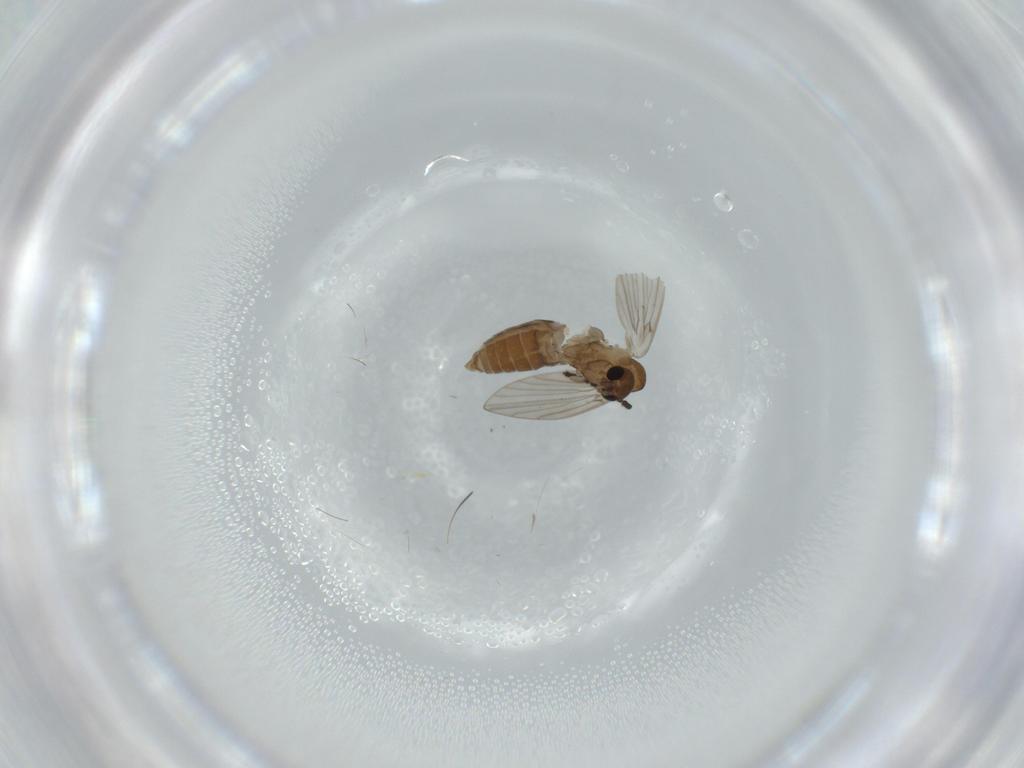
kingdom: Animalia
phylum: Arthropoda
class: Insecta
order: Diptera
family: Sciaridae
